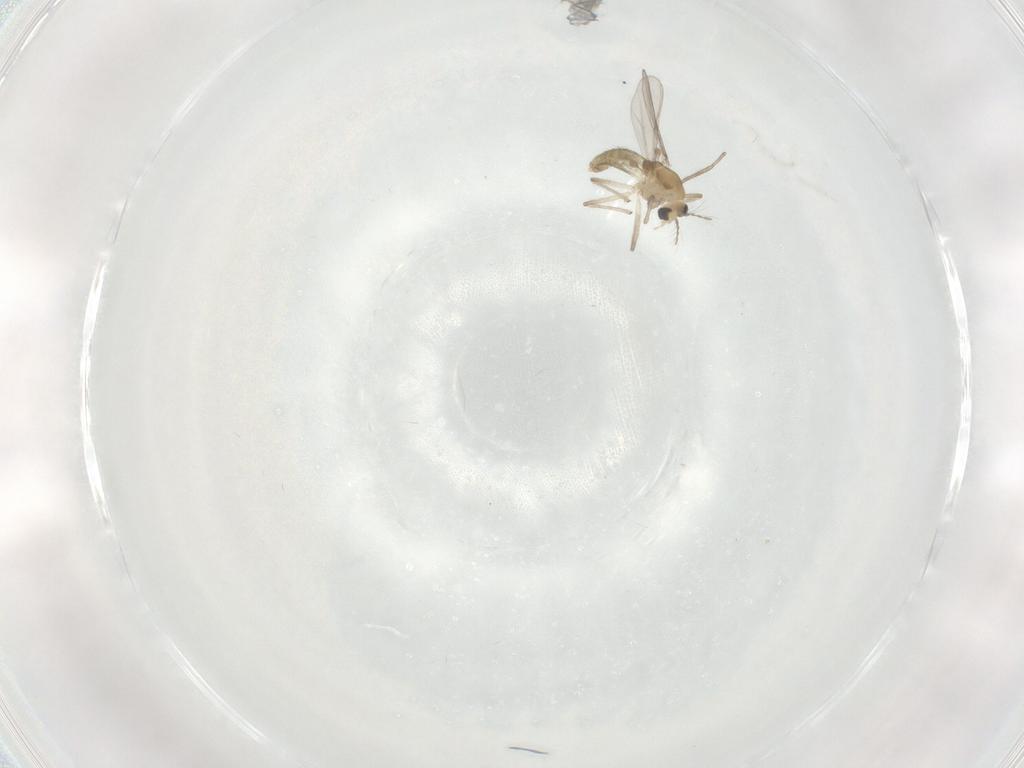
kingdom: Animalia
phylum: Arthropoda
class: Insecta
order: Diptera
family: Chironomidae
